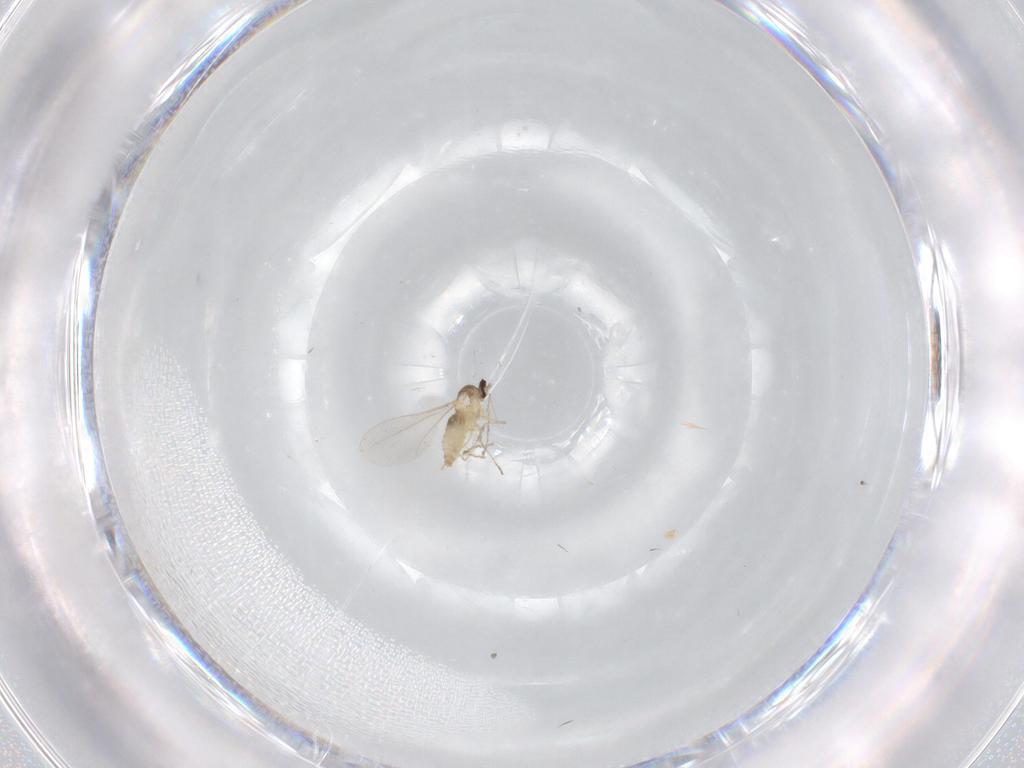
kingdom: Animalia
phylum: Arthropoda
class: Insecta
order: Diptera
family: Cecidomyiidae
